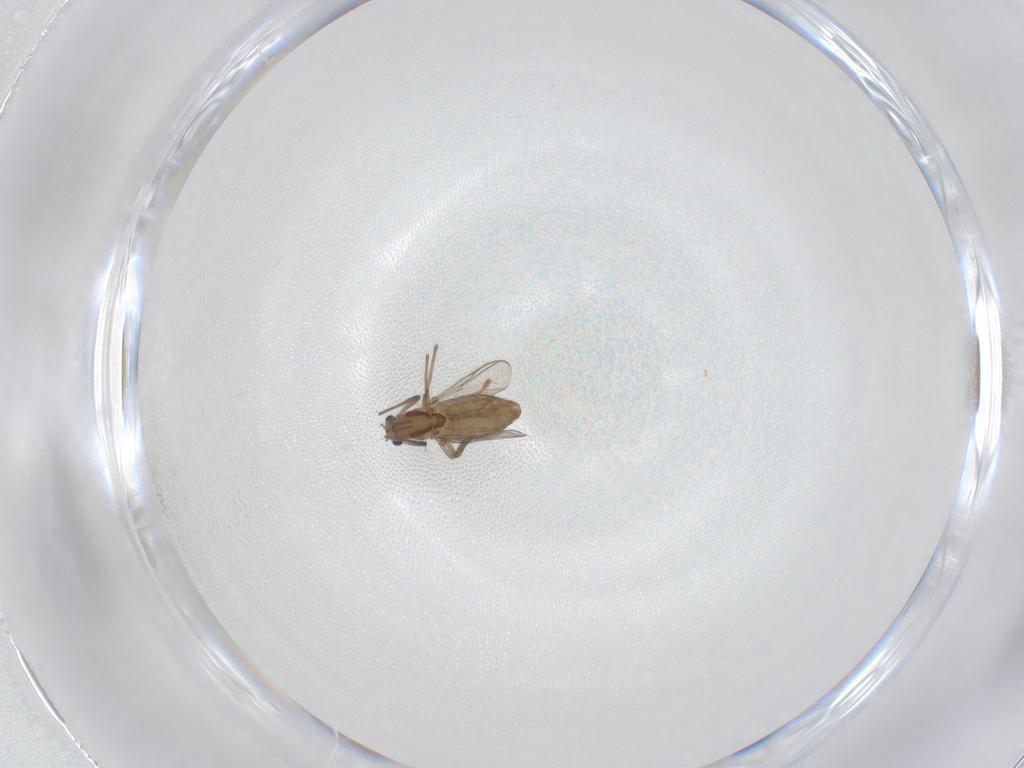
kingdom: Animalia
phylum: Arthropoda
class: Insecta
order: Diptera
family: Chironomidae
